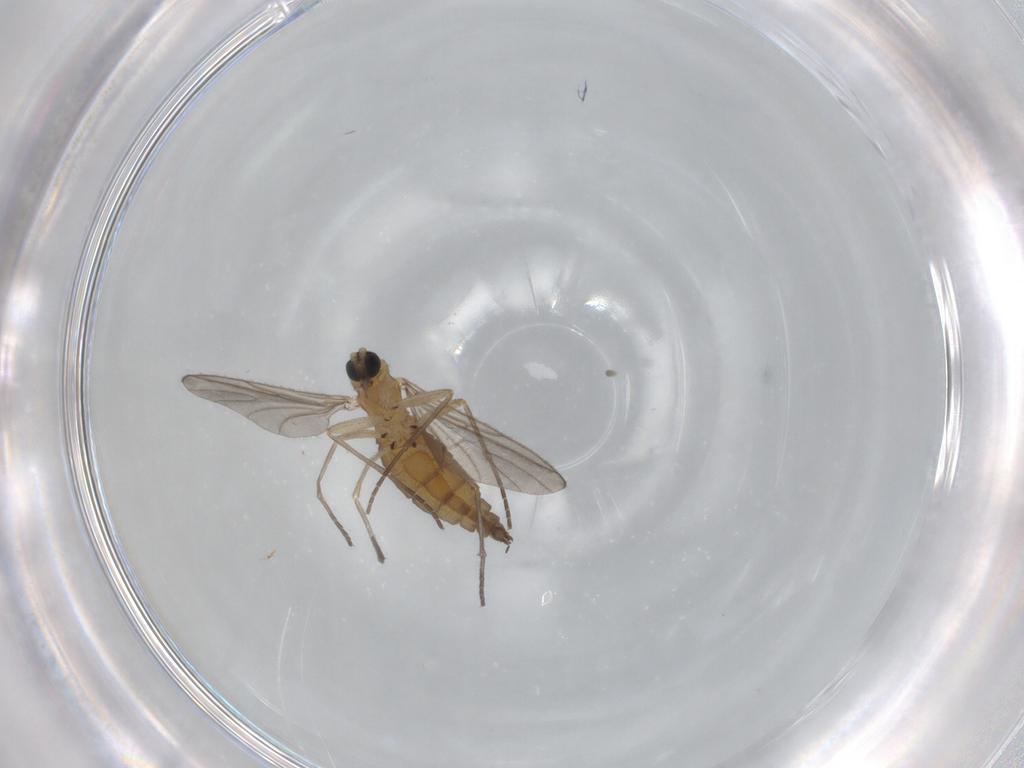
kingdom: Animalia
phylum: Arthropoda
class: Insecta
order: Diptera
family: Sciaridae
